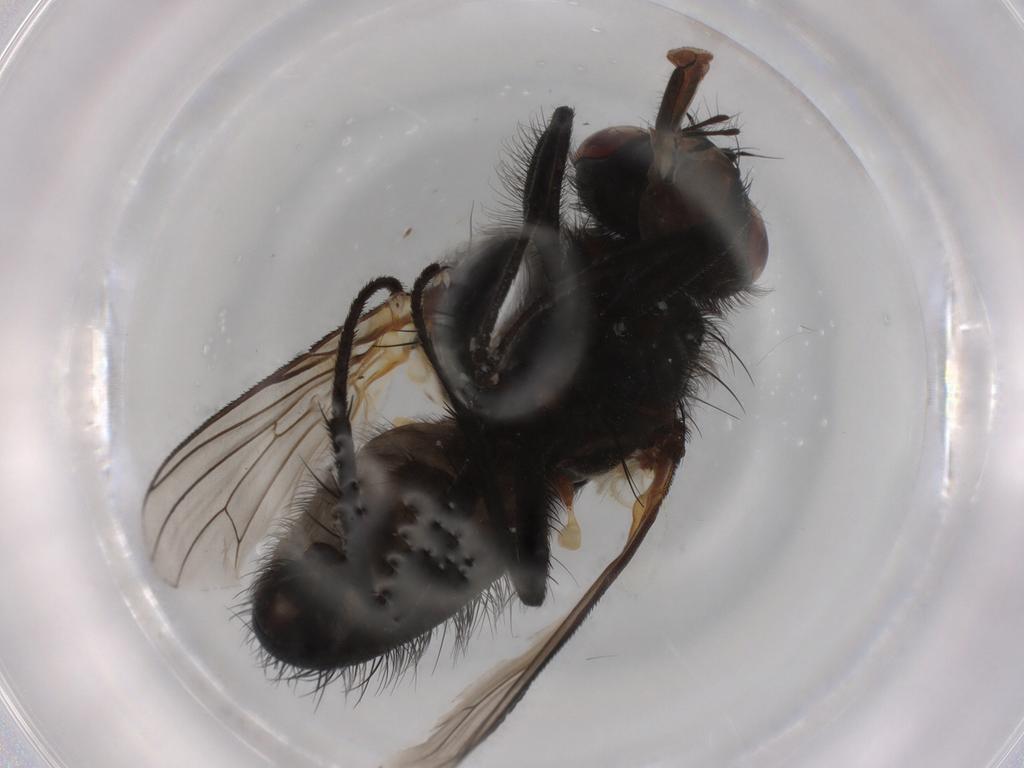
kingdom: Animalia
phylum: Arthropoda
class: Insecta
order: Diptera
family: Anthomyiidae
